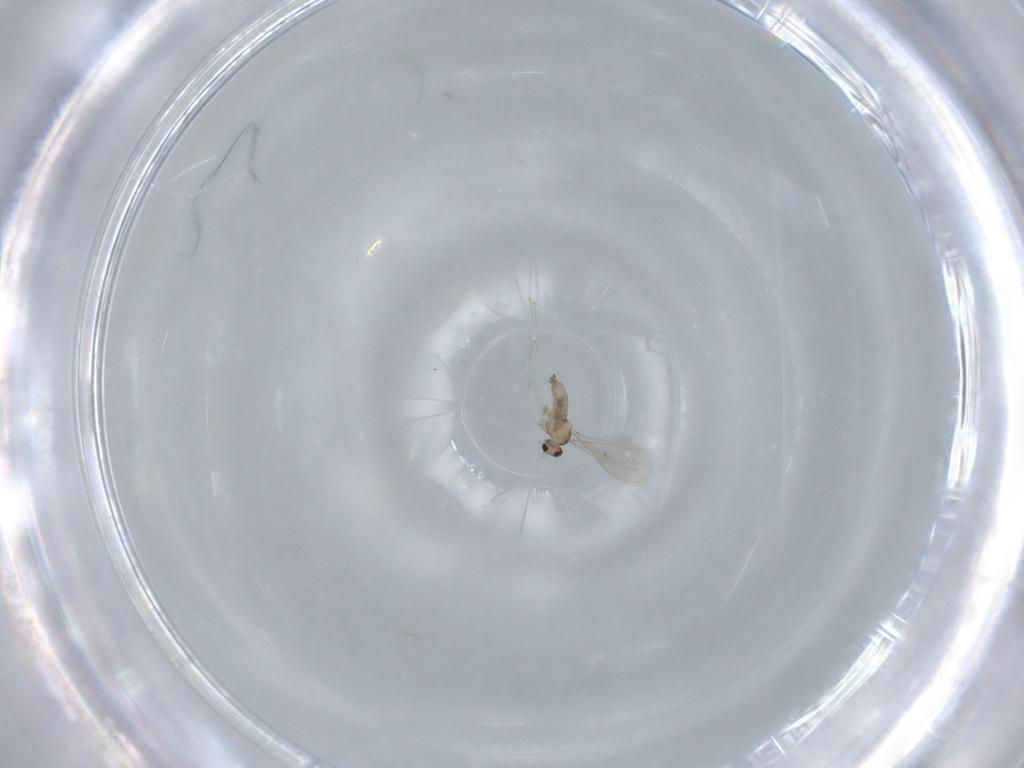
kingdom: Animalia
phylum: Arthropoda
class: Insecta
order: Diptera
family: Cecidomyiidae
